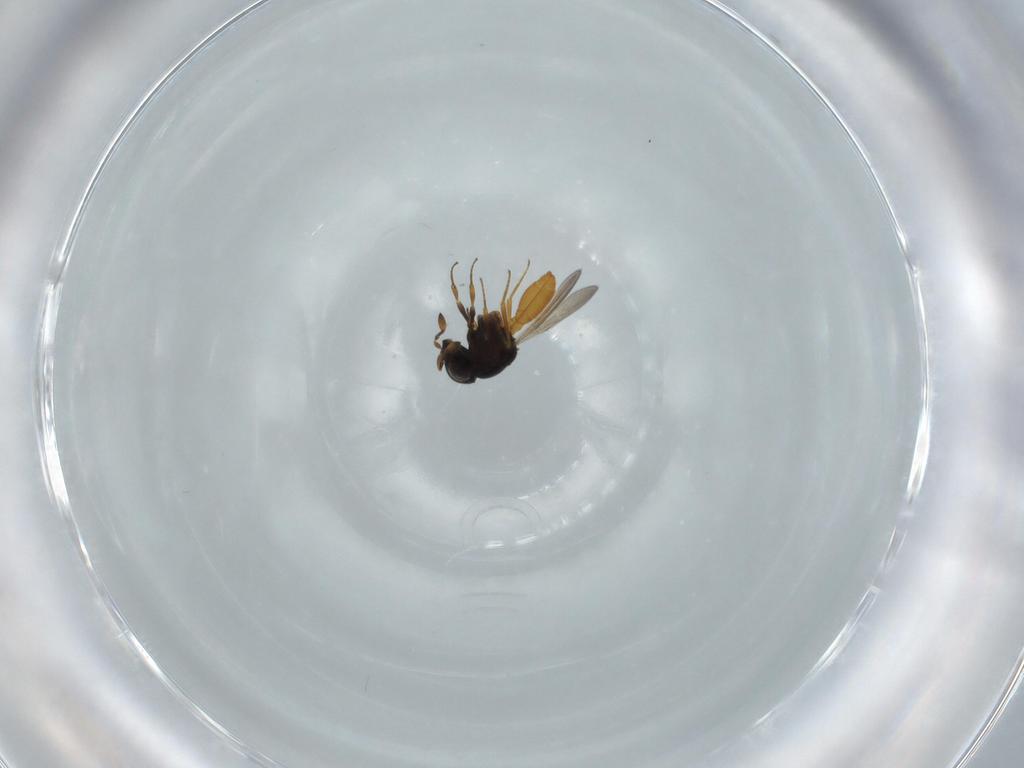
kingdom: Animalia
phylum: Arthropoda
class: Insecta
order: Hymenoptera
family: Scelionidae
